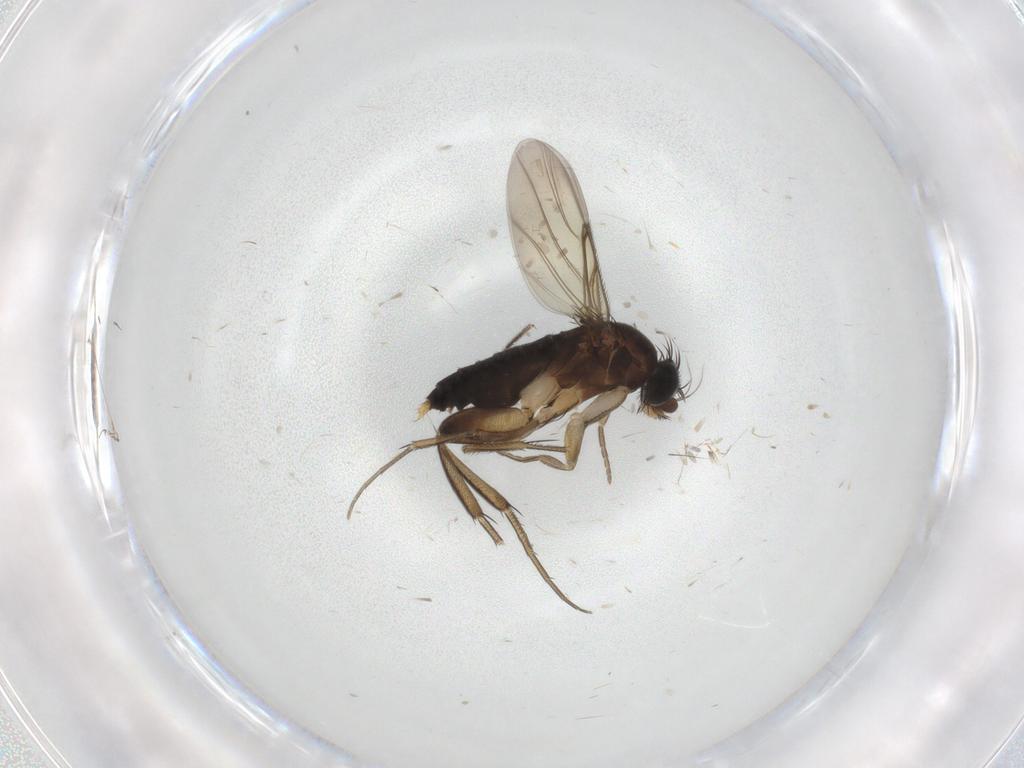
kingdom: Animalia
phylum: Arthropoda
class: Insecta
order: Diptera
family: Phoridae
